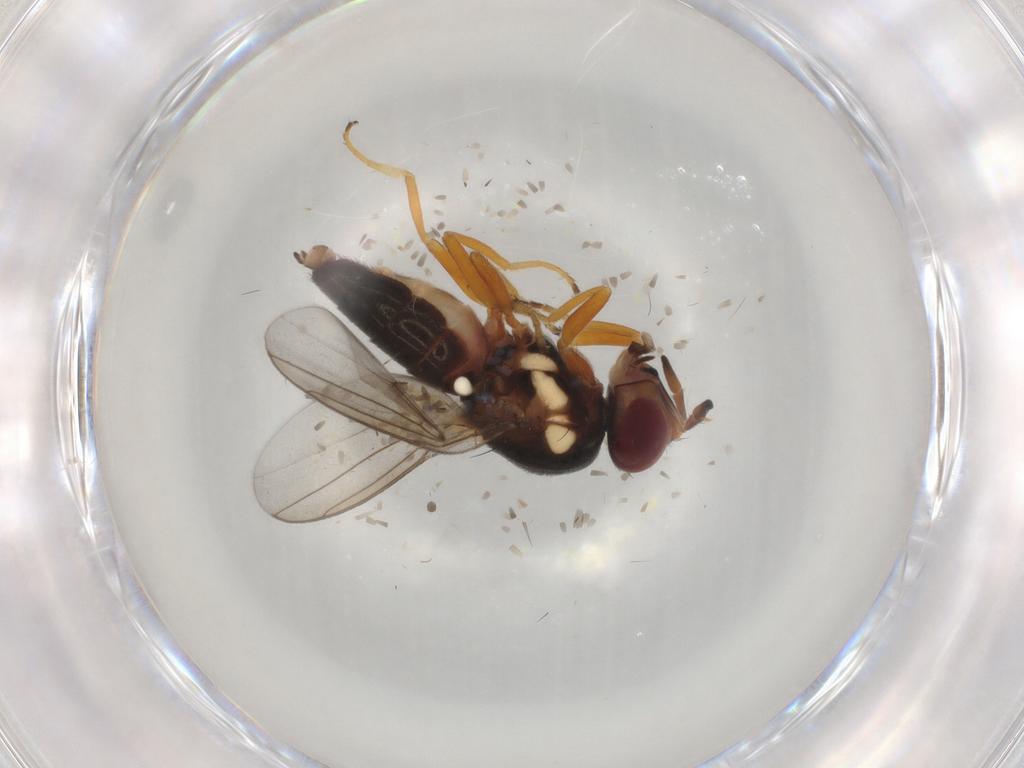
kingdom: Animalia
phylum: Arthropoda
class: Insecta
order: Diptera
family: Chloropidae
